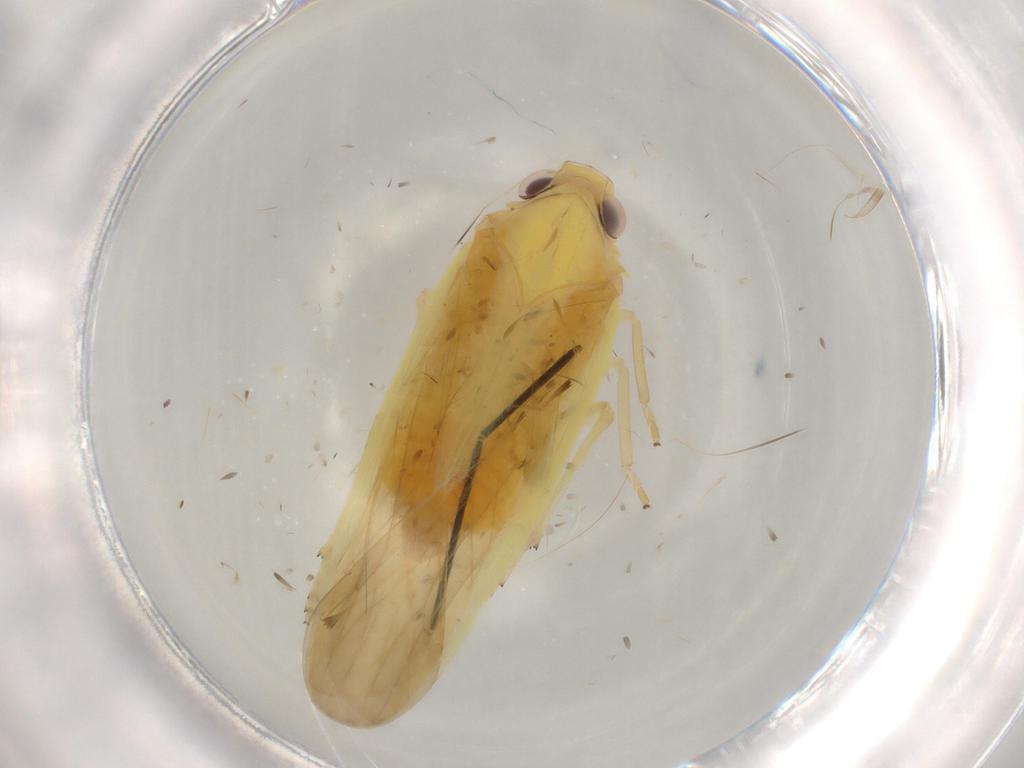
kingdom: Animalia
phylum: Arthropoda
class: Insecta
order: Hemiptera
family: Achilidae
